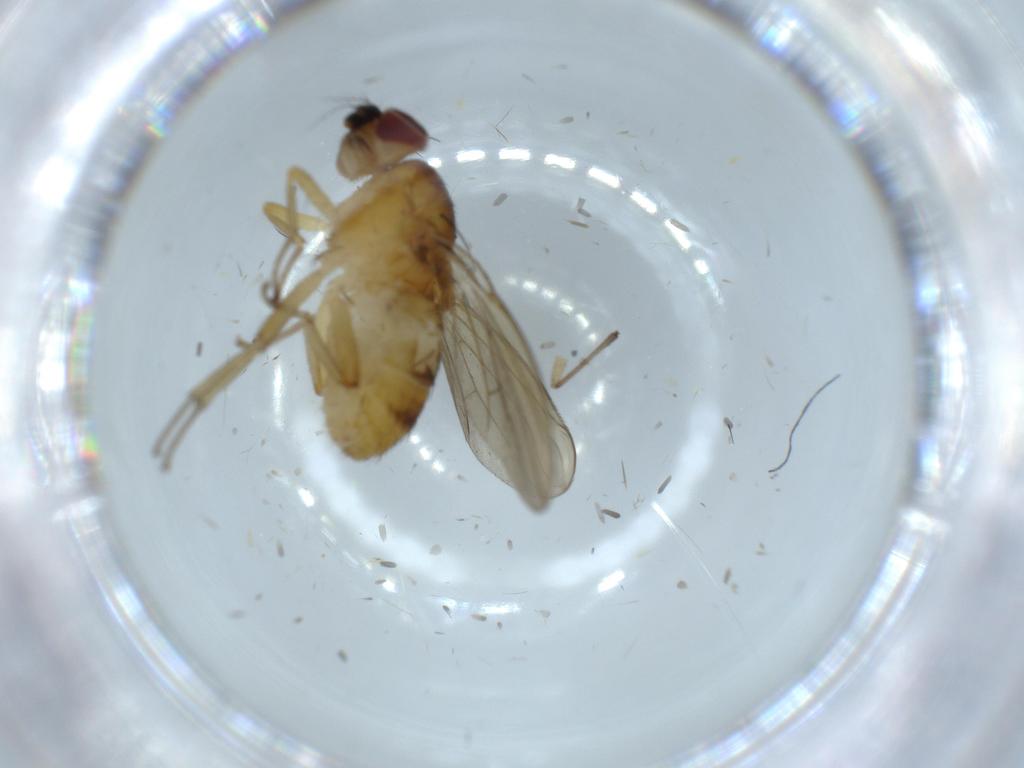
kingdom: Animalia
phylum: Arthropoda
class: Insecta
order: Diptera
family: Lauxaniidae
